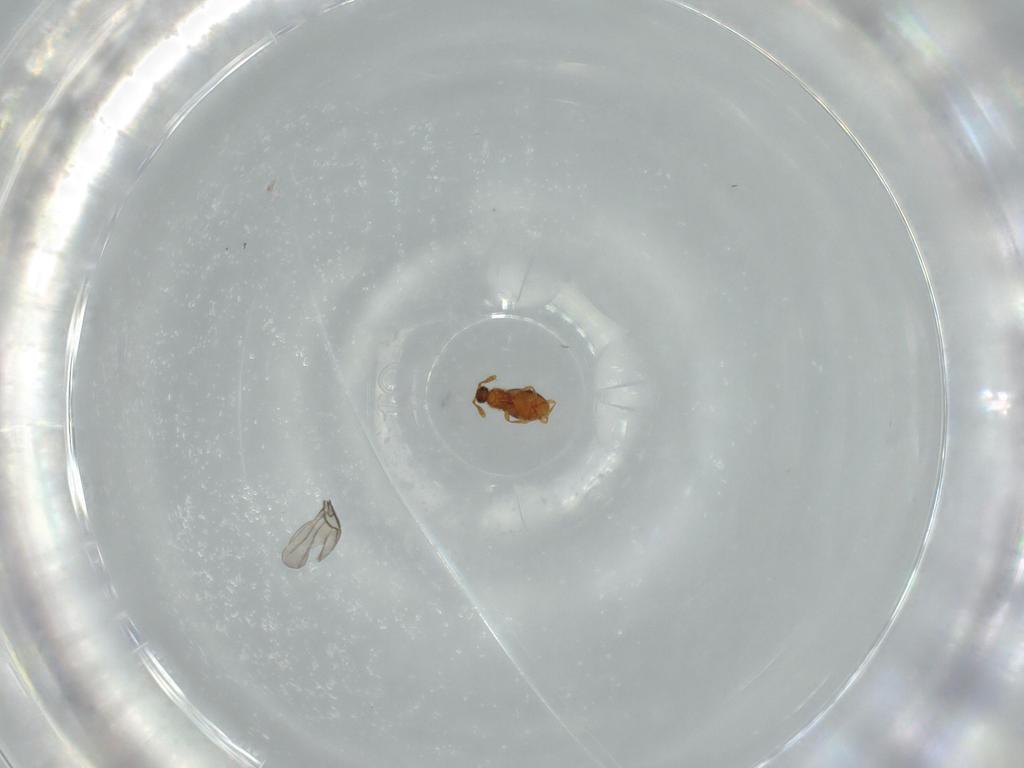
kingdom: Animalia
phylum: Arthropoda
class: Insecta
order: Coleoptera
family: Staphylinidae
